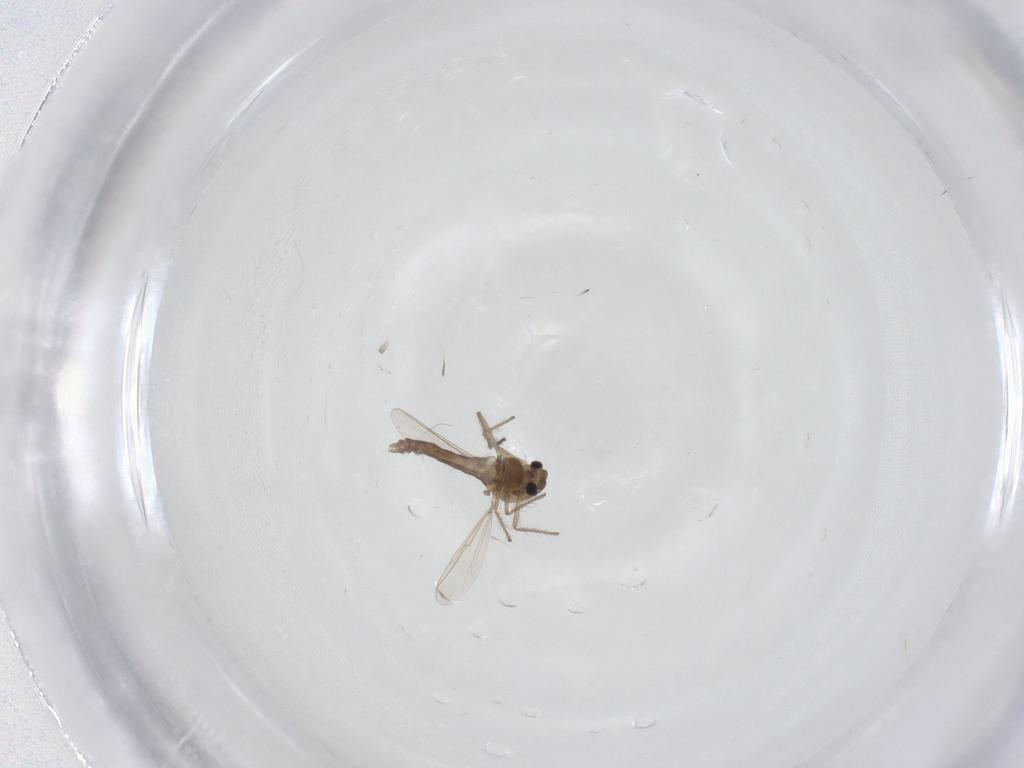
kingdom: Animalia
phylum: Arthropoda
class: Insecta
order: Diptera
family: Chironomidae
